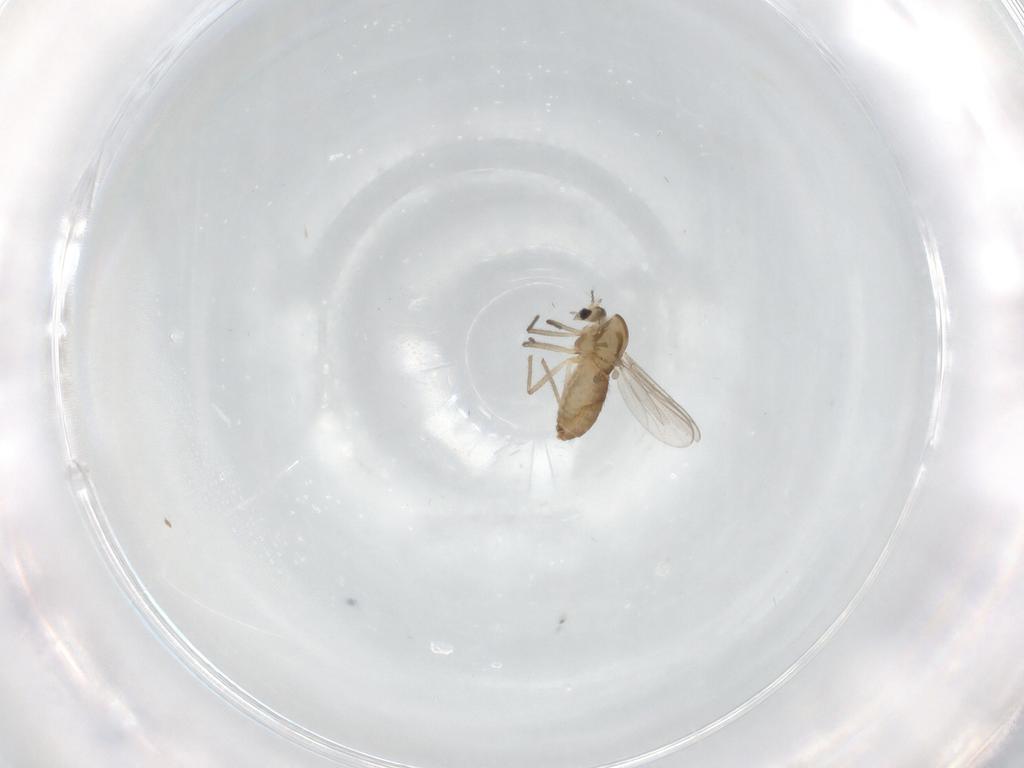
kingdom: Animalia
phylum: Arthropoda
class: Insecta
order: Diptera
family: Chironomidae
